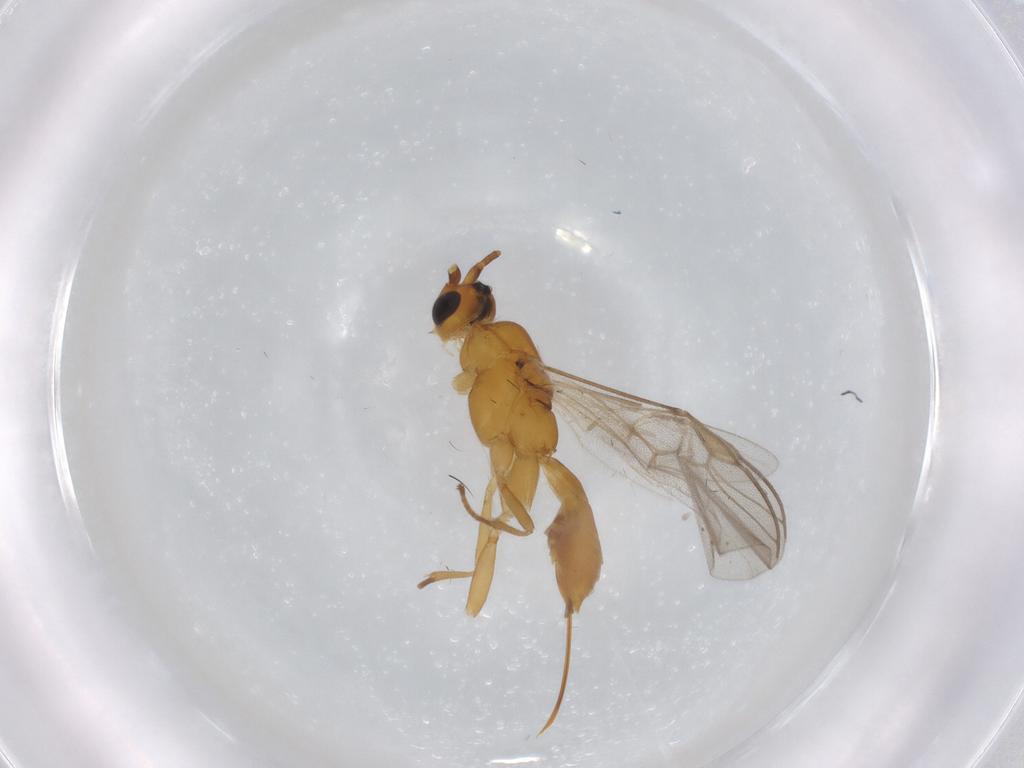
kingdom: Animalia
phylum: Arthropoda
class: Insecta
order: Hymenoptera
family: Braconidae
